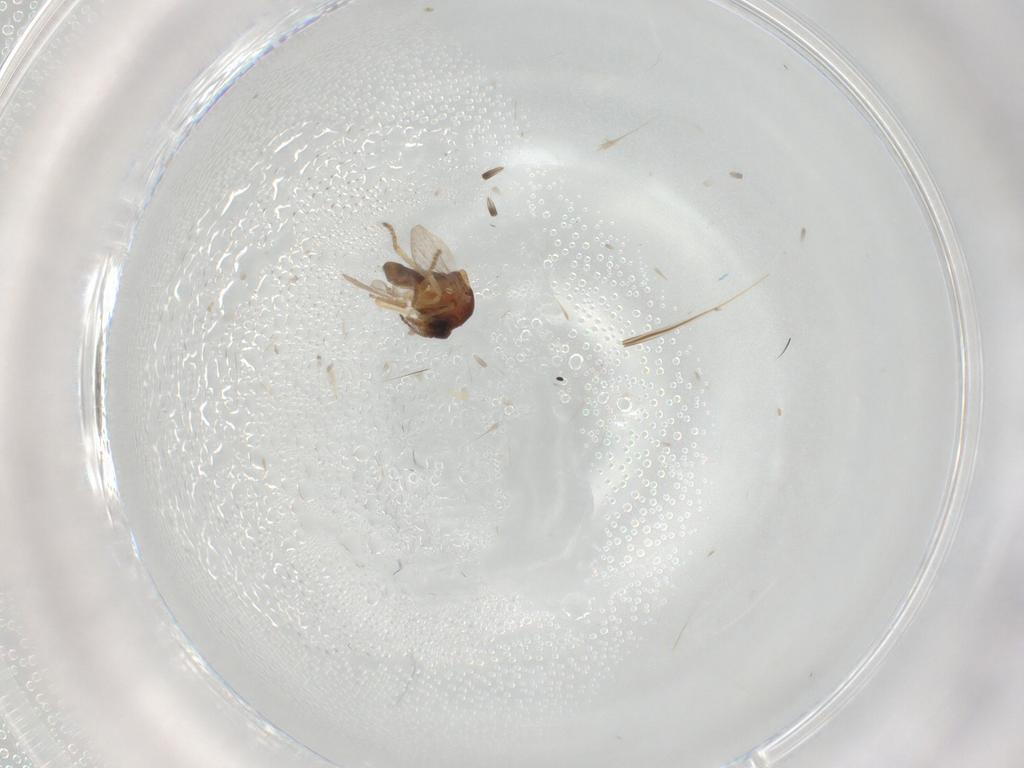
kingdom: Animalia
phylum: Arthropoda
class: Insecta
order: Diptera
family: Ceratopogonidae
